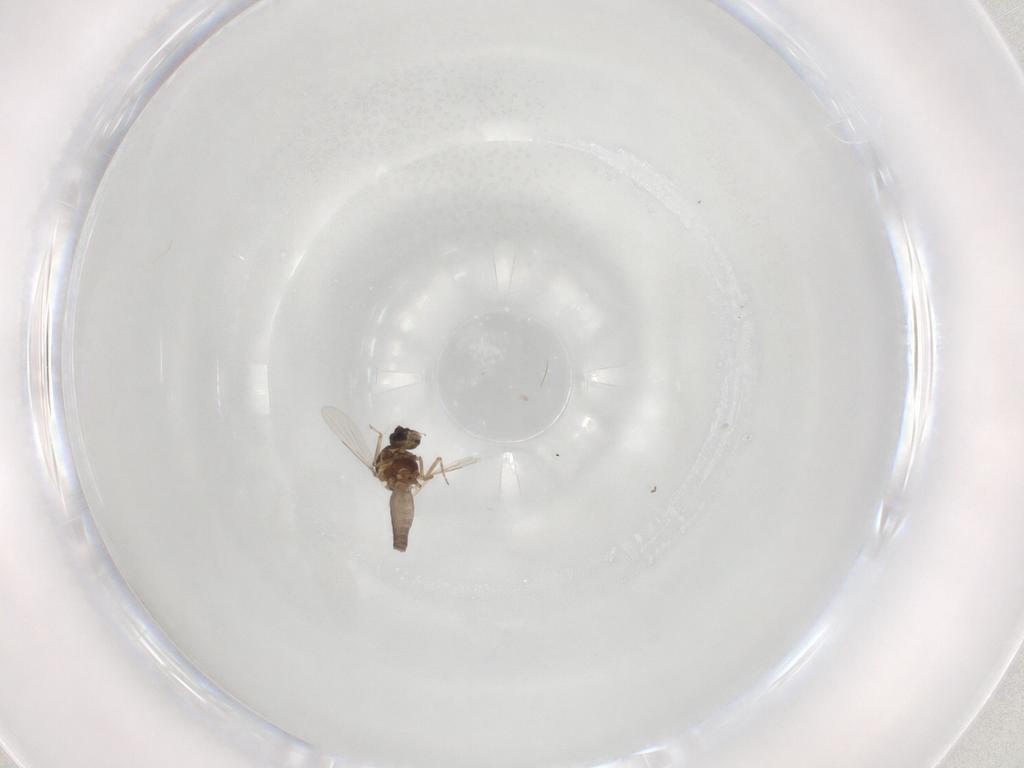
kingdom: Animalia
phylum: Arthropoda
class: Insecta
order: Diptera
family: Ceratopogonidae
